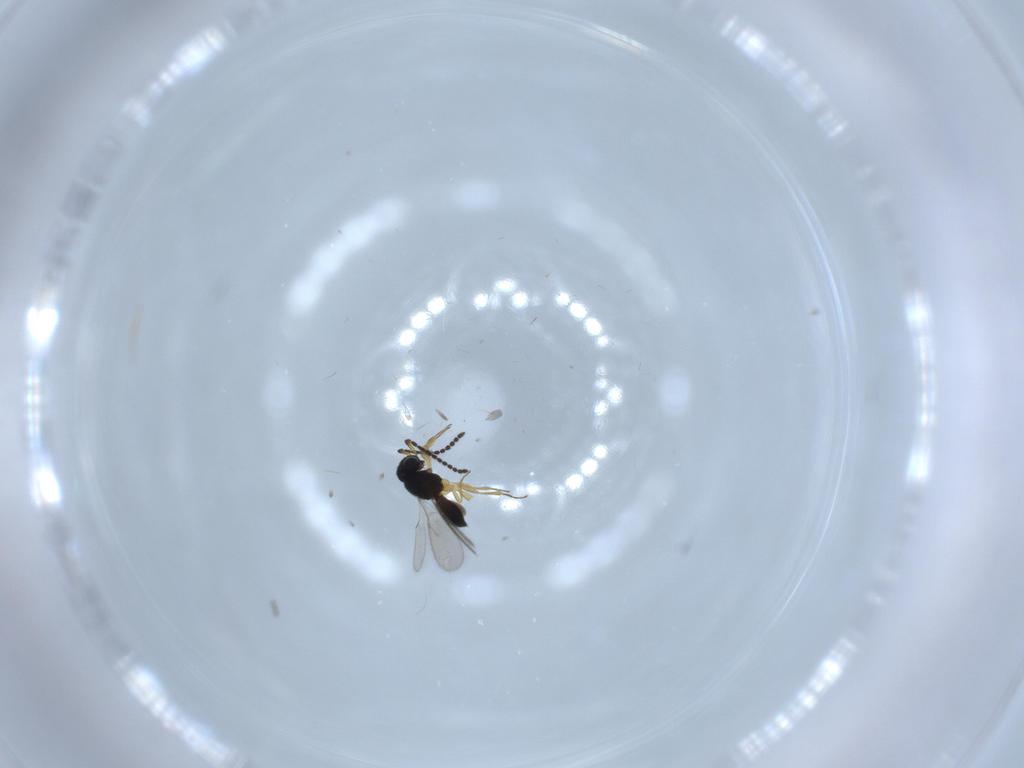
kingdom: Animalia
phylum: Arthropoda
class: Insecta
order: Hymenoptera
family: Scelionidae
